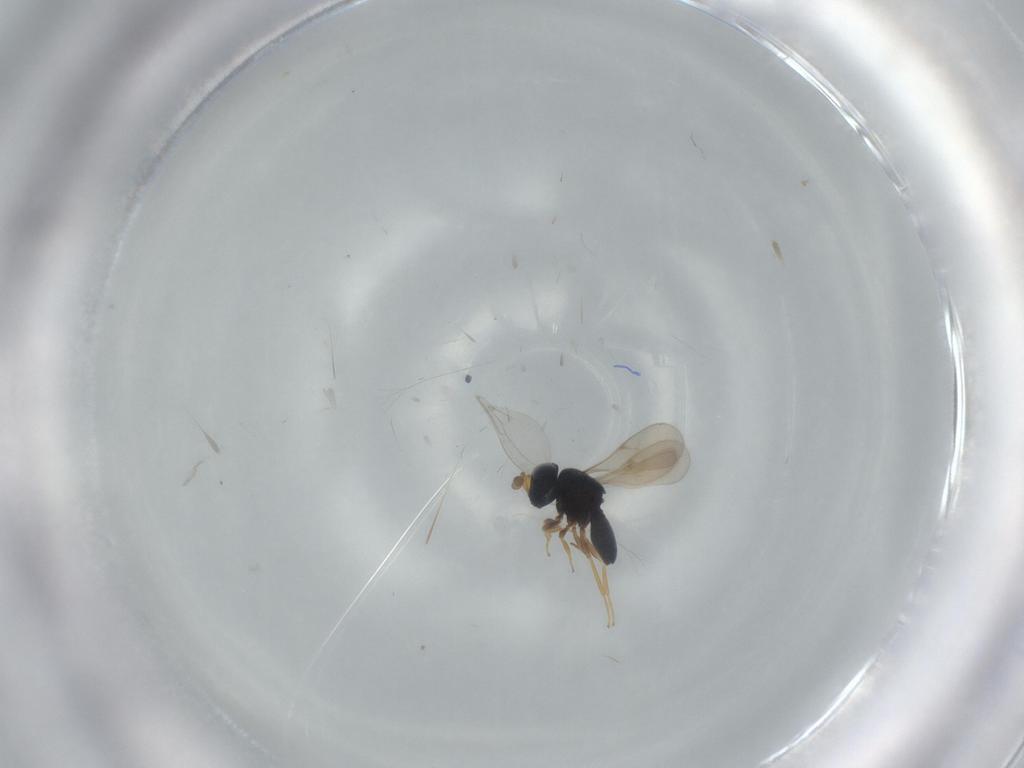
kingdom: Animalia
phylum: Arthropoda
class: Insecta
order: Hymenoptera
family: Scelionidae
